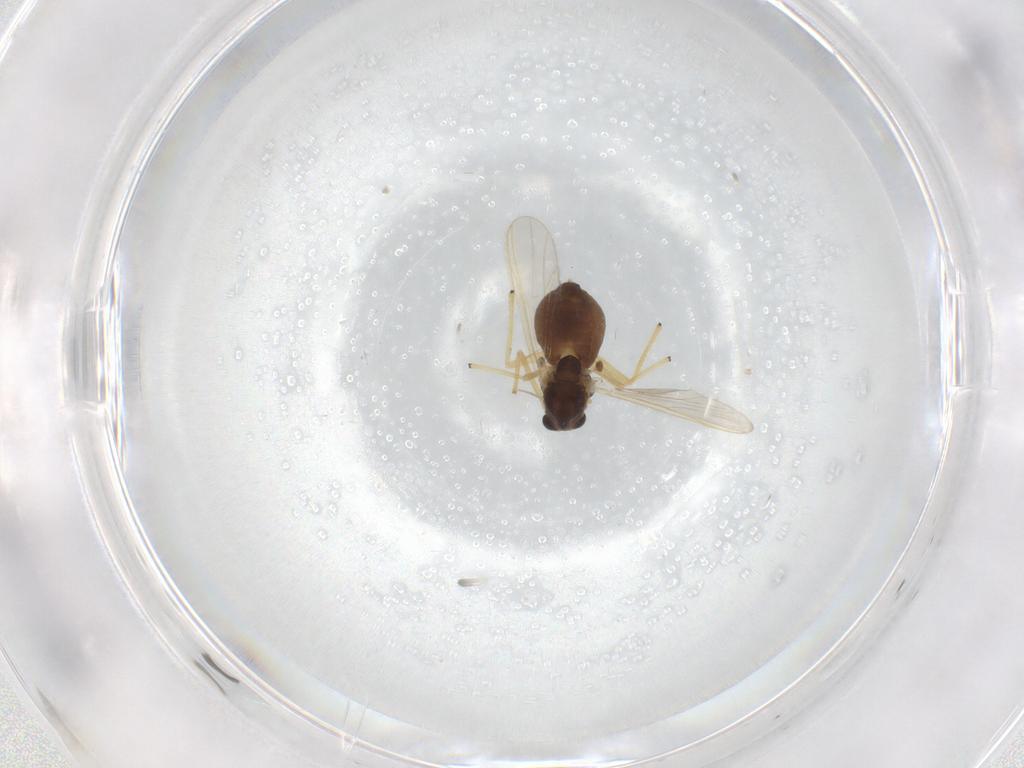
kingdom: Animalia
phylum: Arthropoda
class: Insecta
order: Diptera
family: Chironomidae
